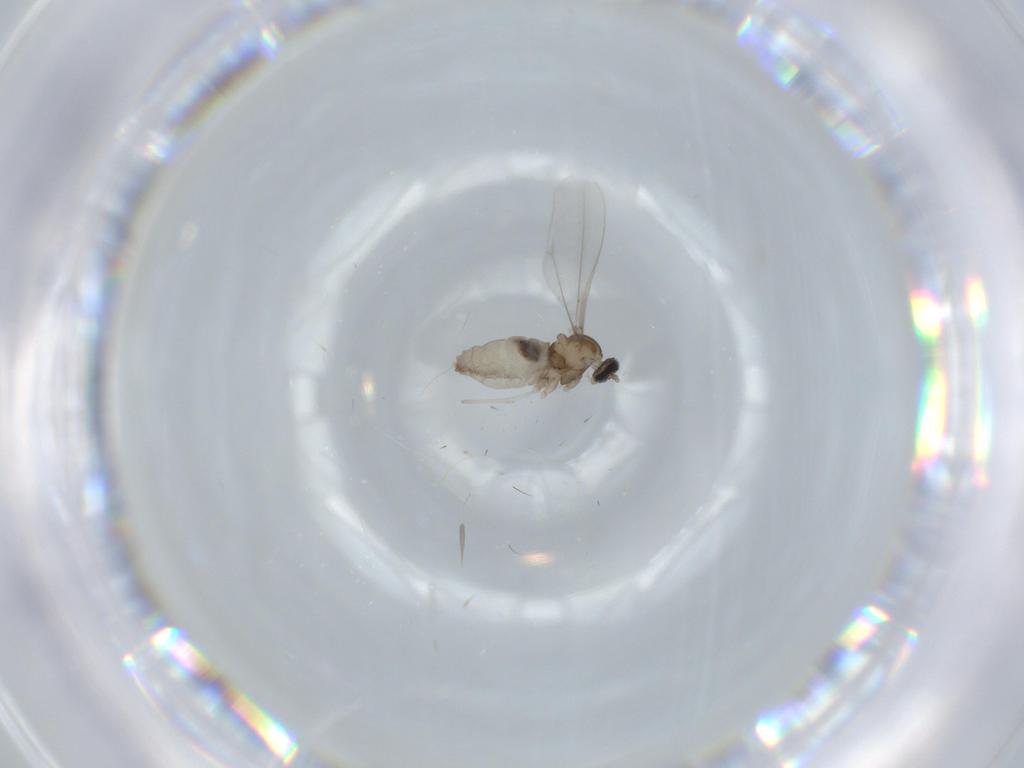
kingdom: Animalia
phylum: Arthropoda
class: Insecta
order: Diptera
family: Cecidomyiidae
